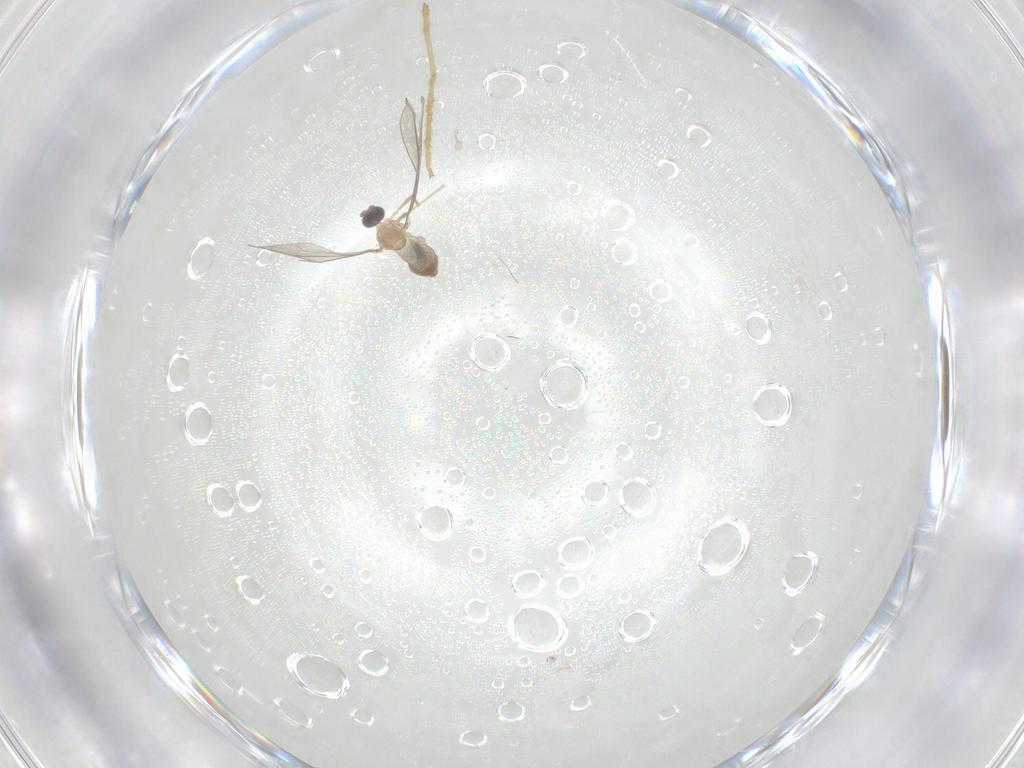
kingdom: Animalia
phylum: Arthropoda
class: Insecta
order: Diptera
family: Cecidomyiidae
